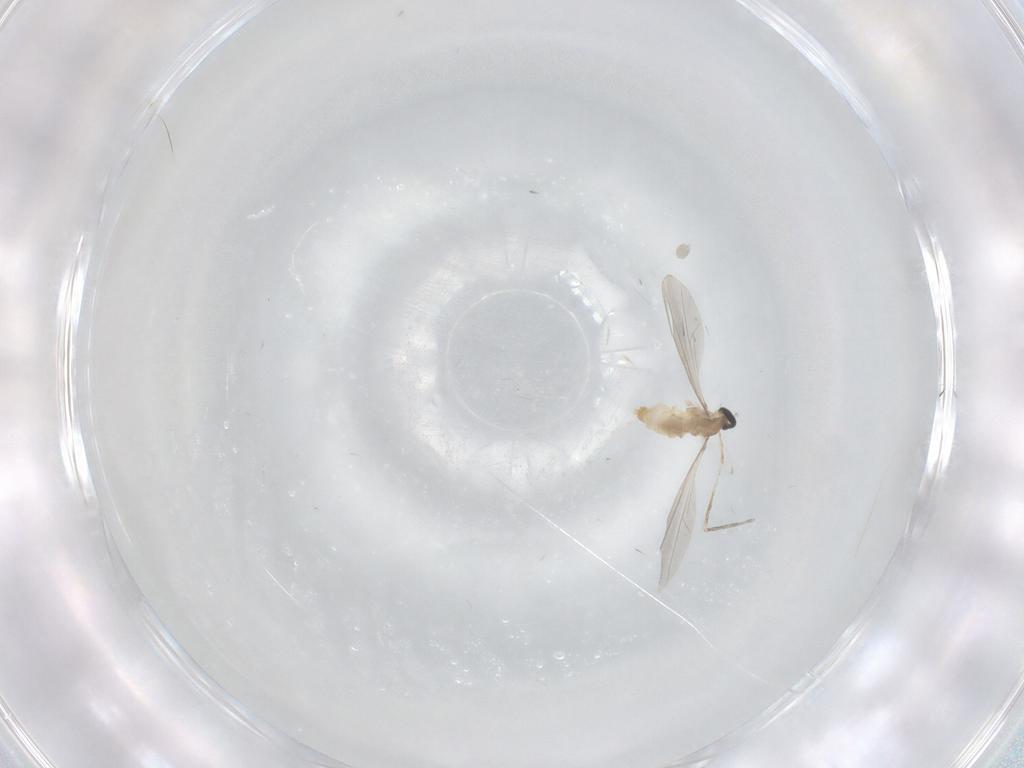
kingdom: Animalia
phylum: Arthropoda
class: Insecta
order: Diptera
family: Cecidomyiidae
